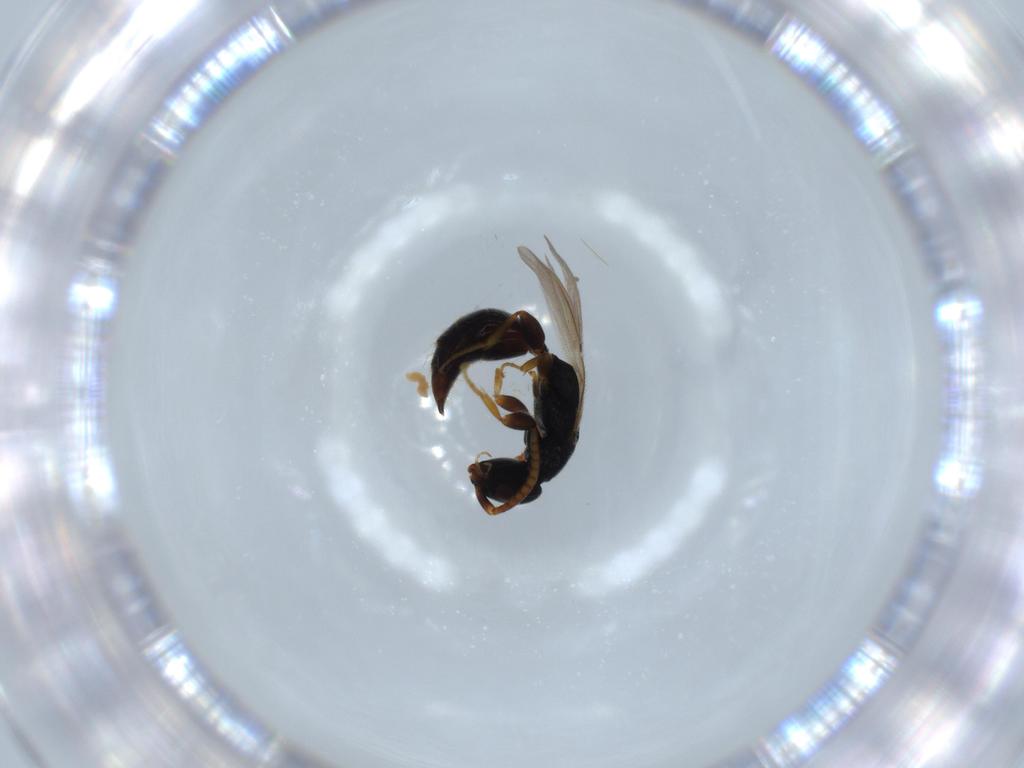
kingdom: Animalia
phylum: Arthropoda
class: Insecta
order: Hymenoptera
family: Bethylidae
